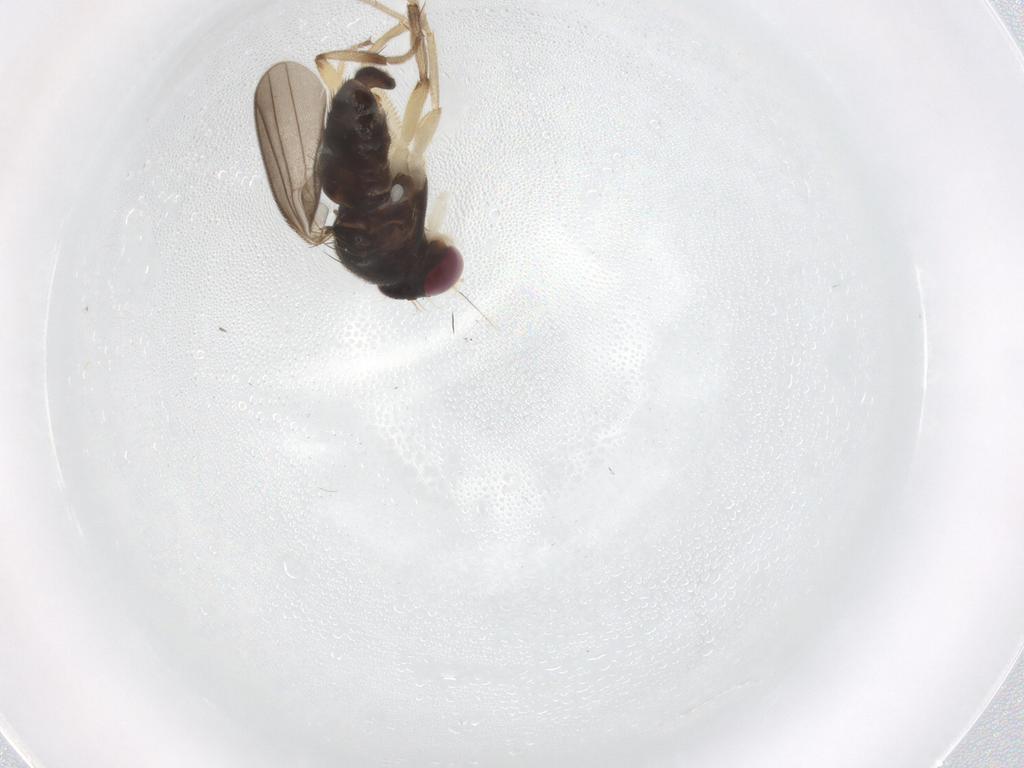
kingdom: Animalia
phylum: Arthropoda
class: Insecta
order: Diptera
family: Clusiidae
